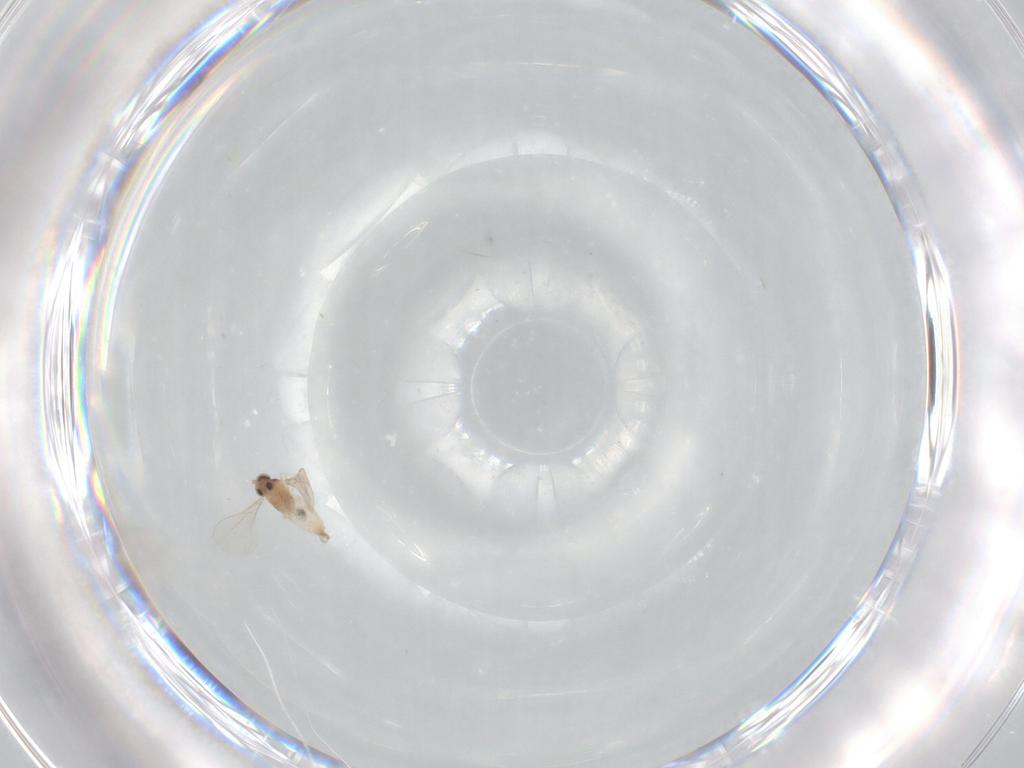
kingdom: Animalia
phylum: Arthropoda
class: Insecta
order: Diptera
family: Cecidomyiidae
